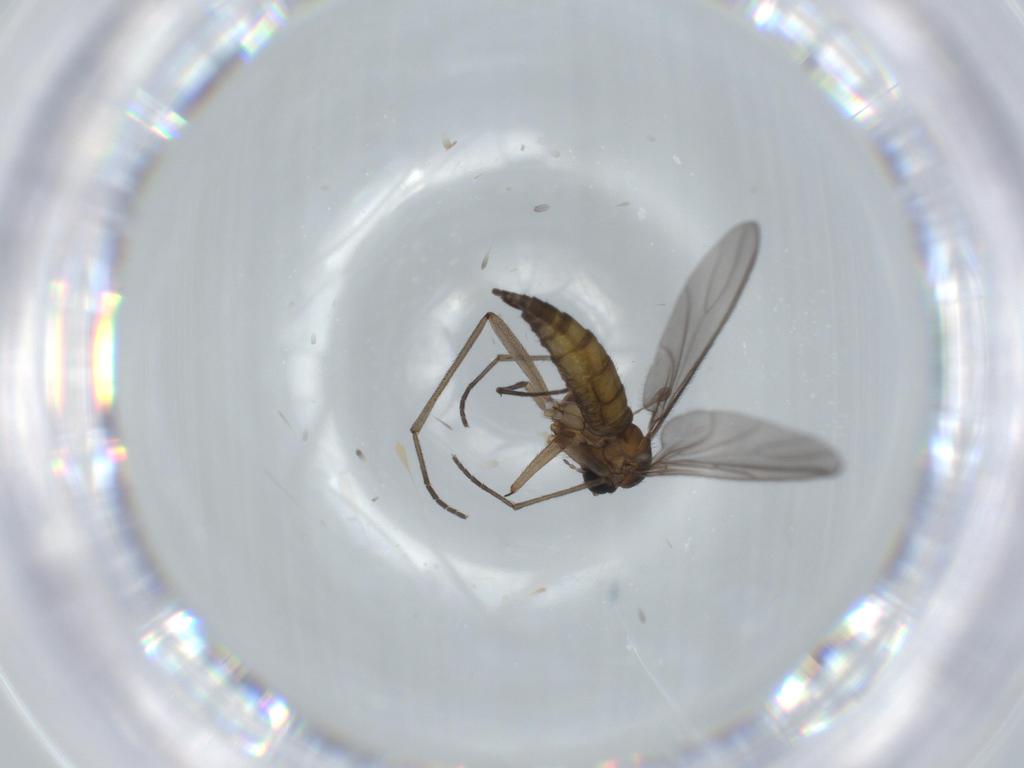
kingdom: Animalia
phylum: Arthropoda
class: Insecta
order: Diptera
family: Sciaridae
